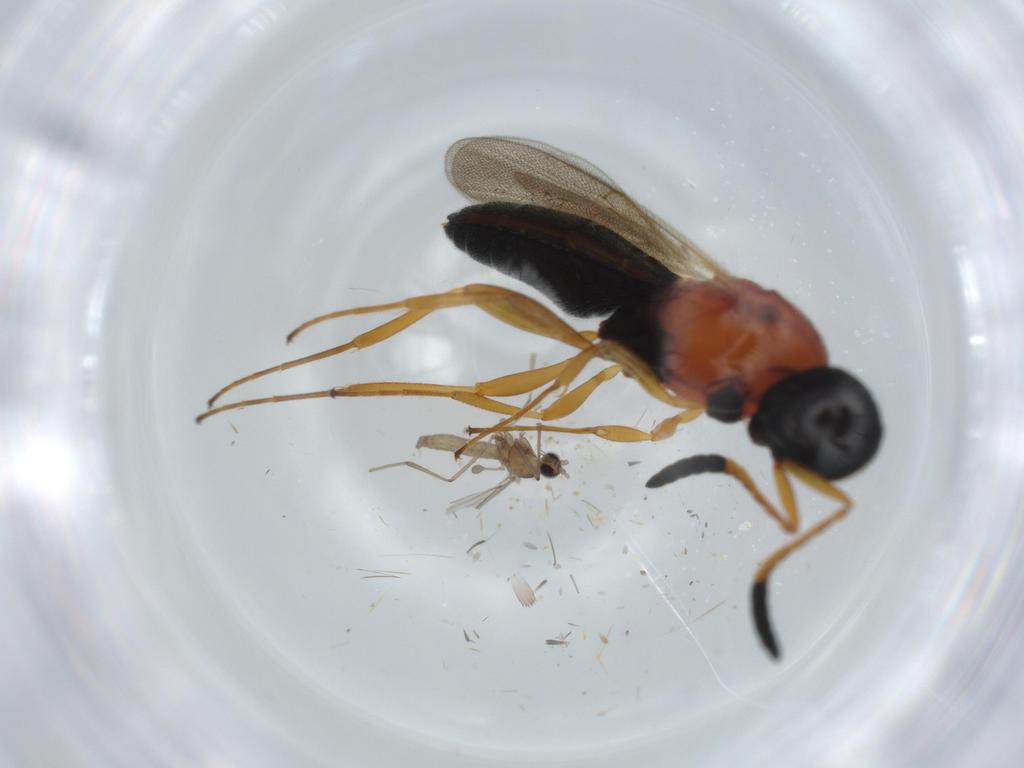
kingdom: Animalia
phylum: Arthropoda
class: Insecta
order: Hymenoptera
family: Scelionidae
